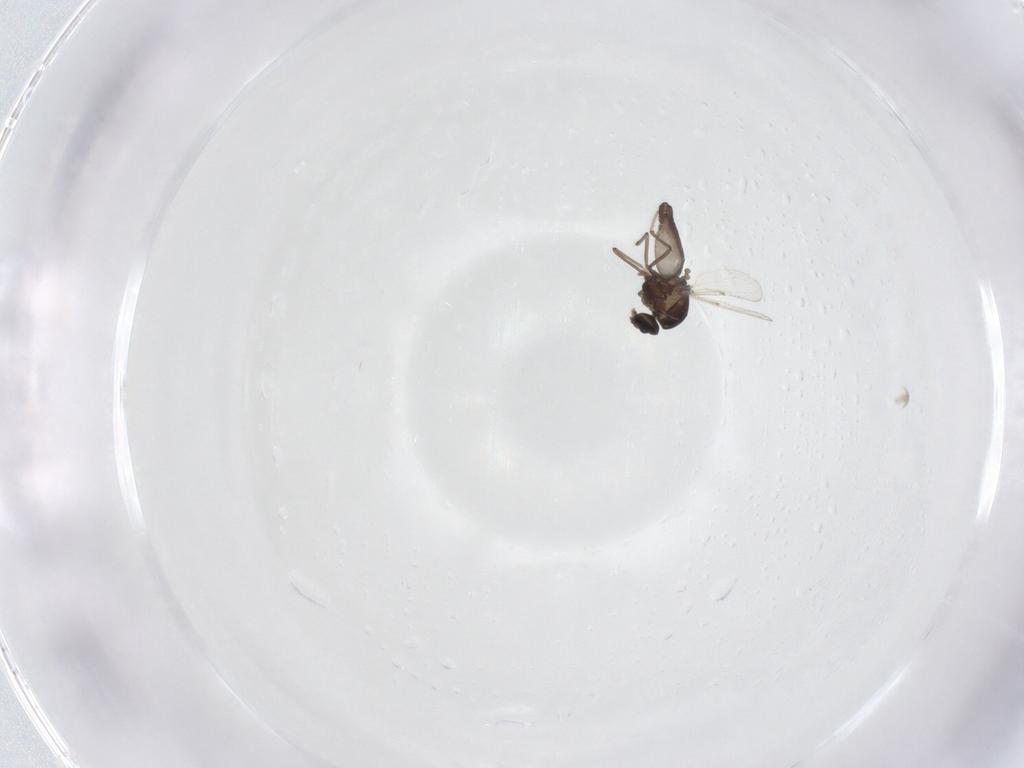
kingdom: Animalia
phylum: Arthropoda
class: Insecta
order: Diptera
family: Ceratopogonidae
